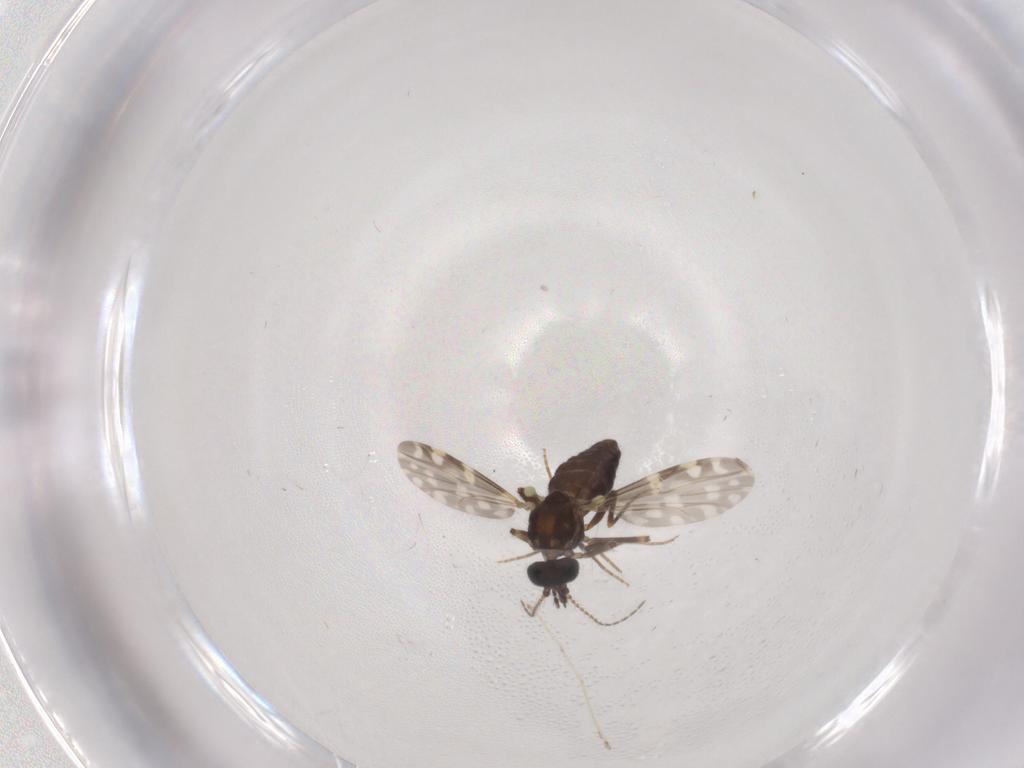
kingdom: Animalia
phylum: Arthropoda
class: Insecta
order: Diptera
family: Ceratopogonidae
